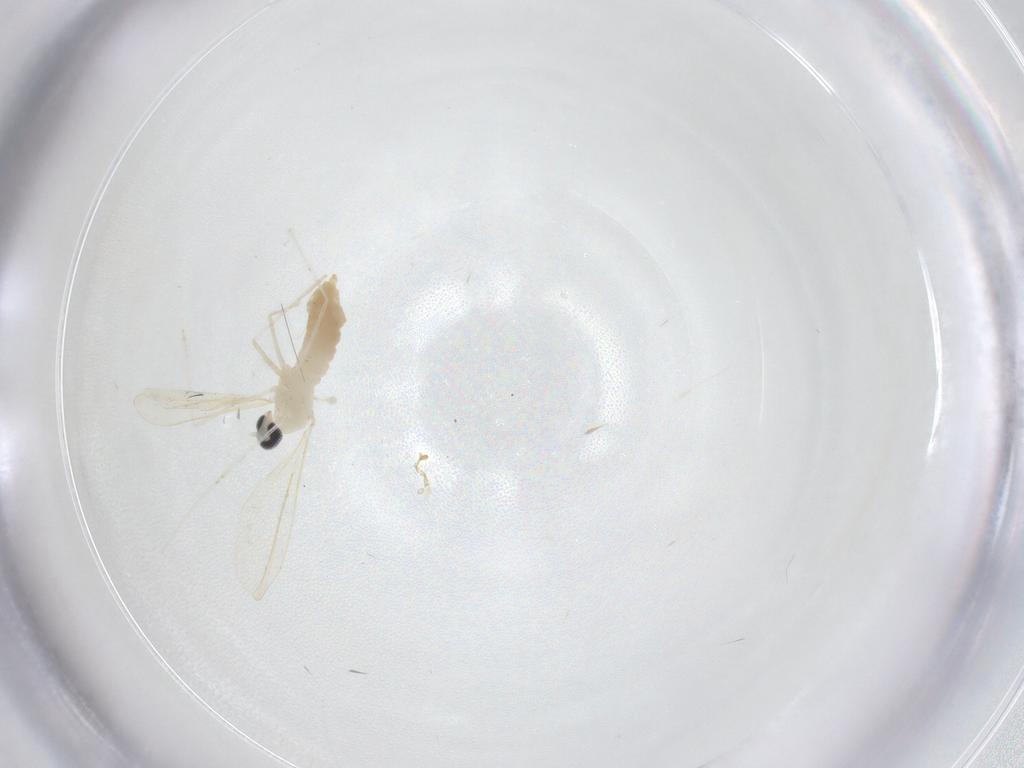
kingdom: Animalia
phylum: Arthropoda
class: Insecta
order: Diptera
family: Cecidomyiidae
